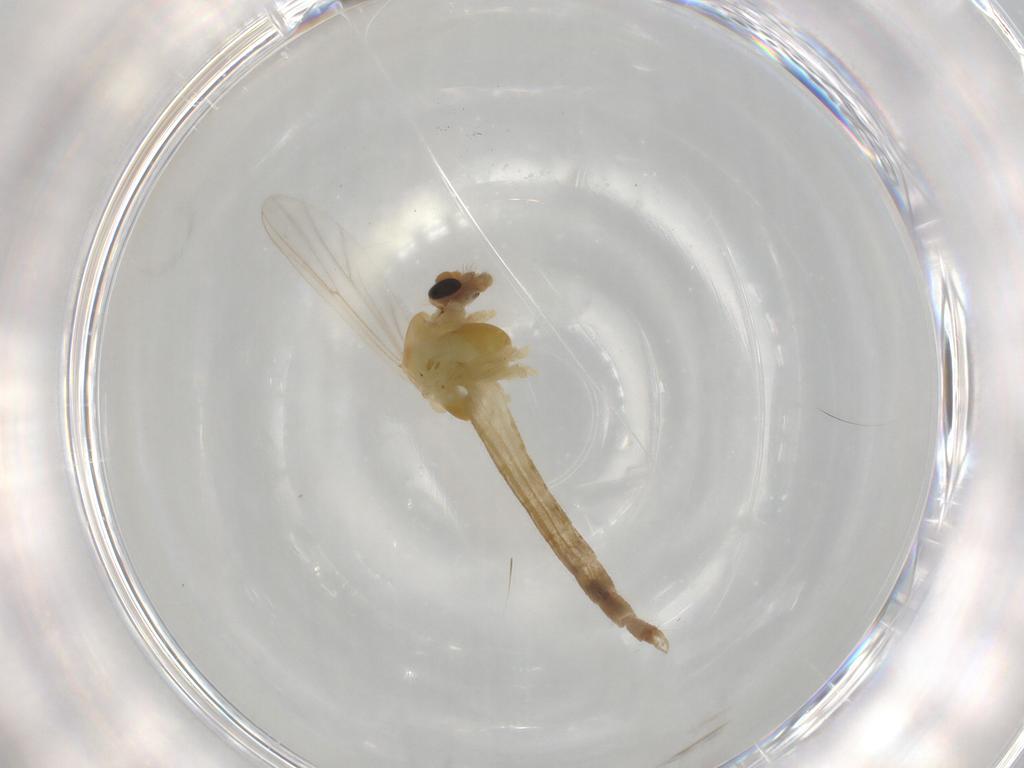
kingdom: Animalia
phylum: Arthropoda
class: Insecta
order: Diptera
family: Chironomidae
